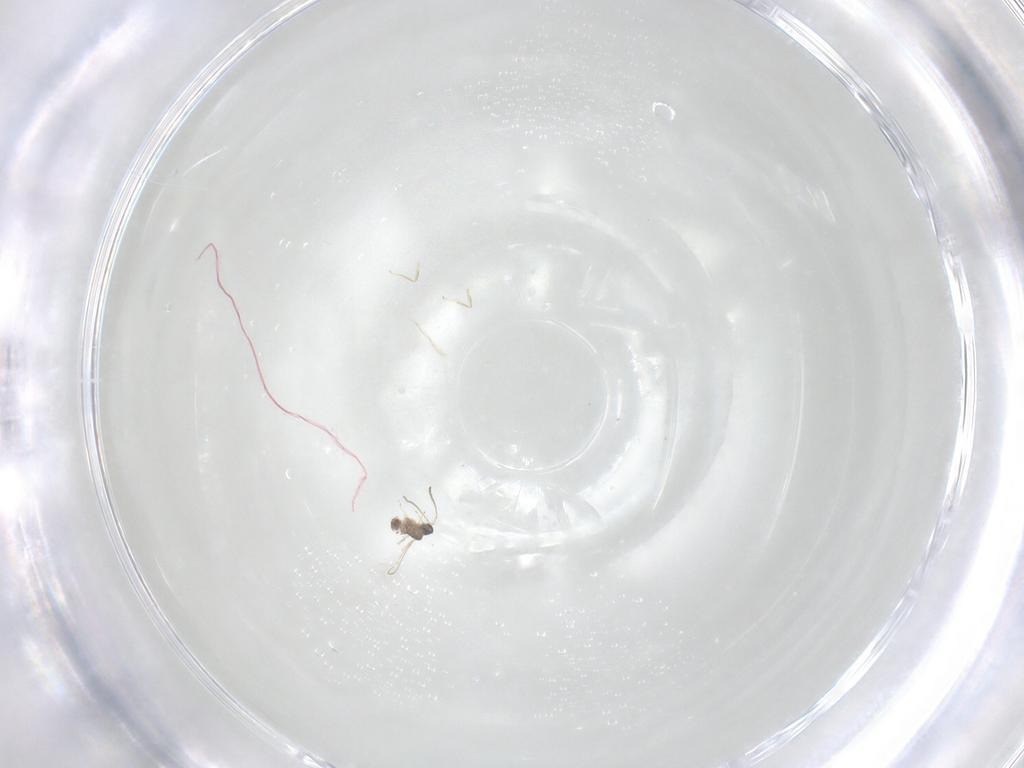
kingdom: Animalia
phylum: Arthropoda
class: Insecta
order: Hymenoptera
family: Mymaridae
